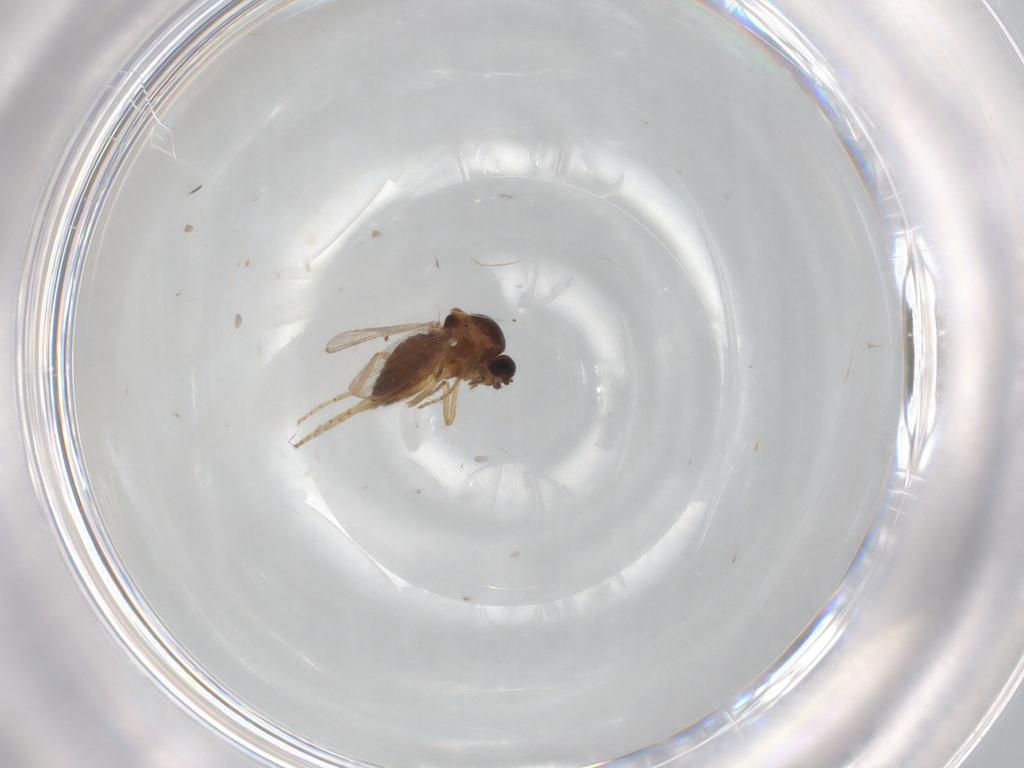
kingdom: Animalia
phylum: Arthropoda
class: Insecta
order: Diptera
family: Ceratopogonidae
